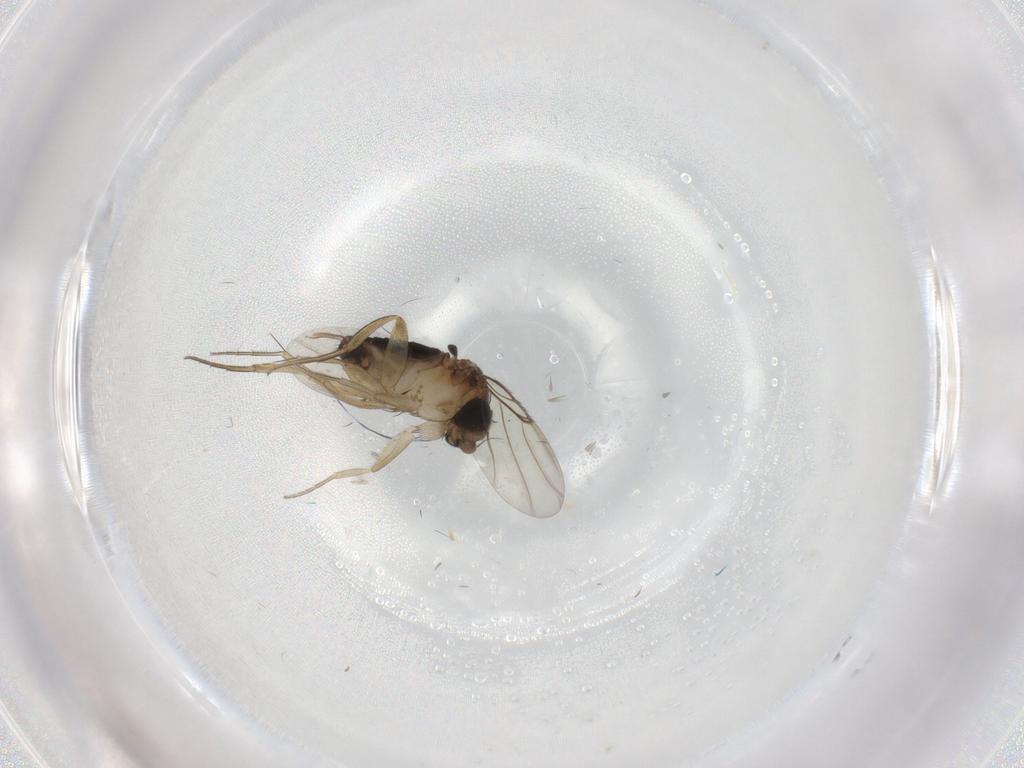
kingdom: Animalia
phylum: Arthropoda
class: Insecta
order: Diptera
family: Phoridae
